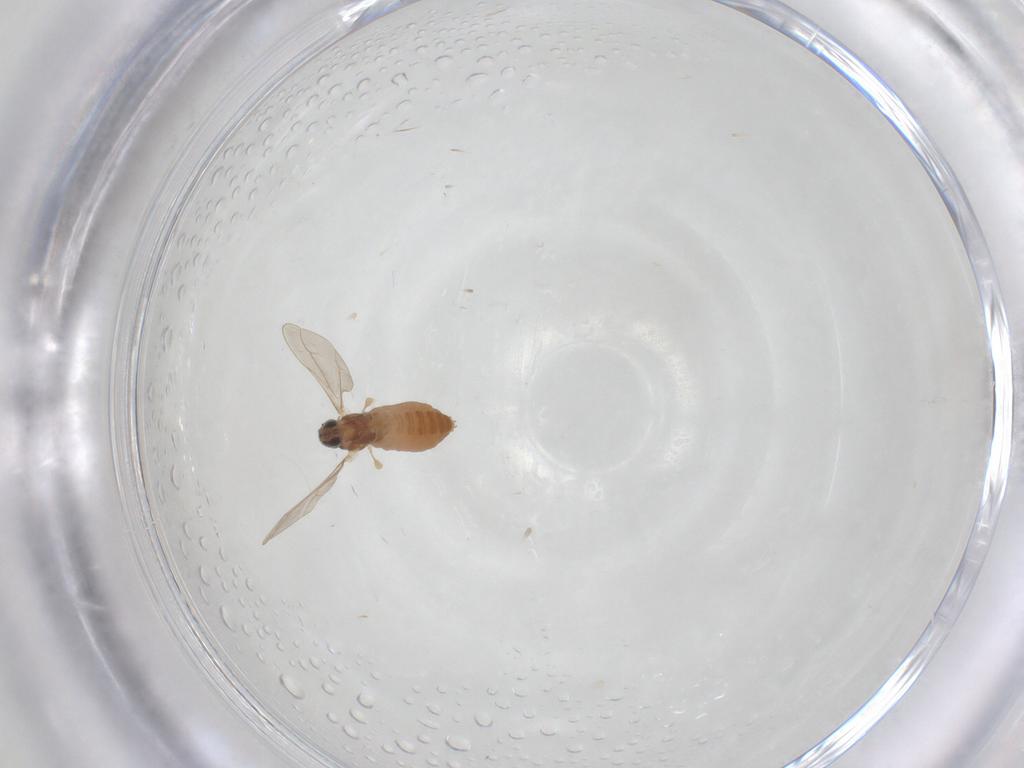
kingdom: Animalia
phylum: Arthropoda
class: Insecta
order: Diptera
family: Cecidomyiidae
